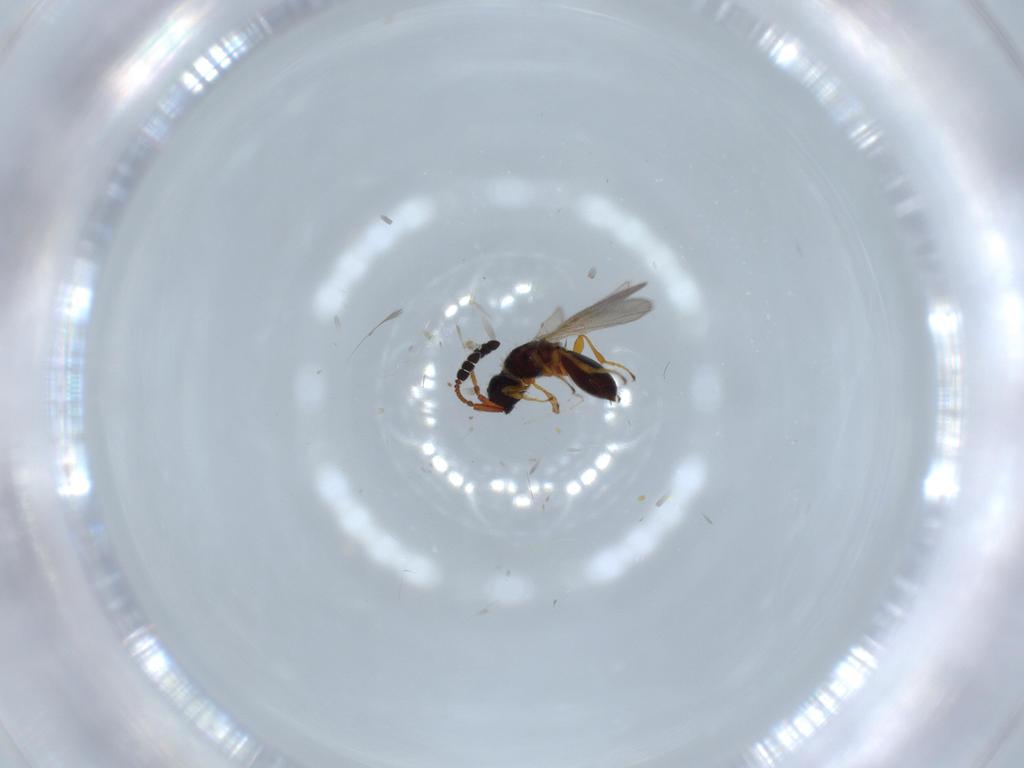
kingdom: Animalia
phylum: Arthropoda
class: Insecta
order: Hymenoptera
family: Diapriidae
